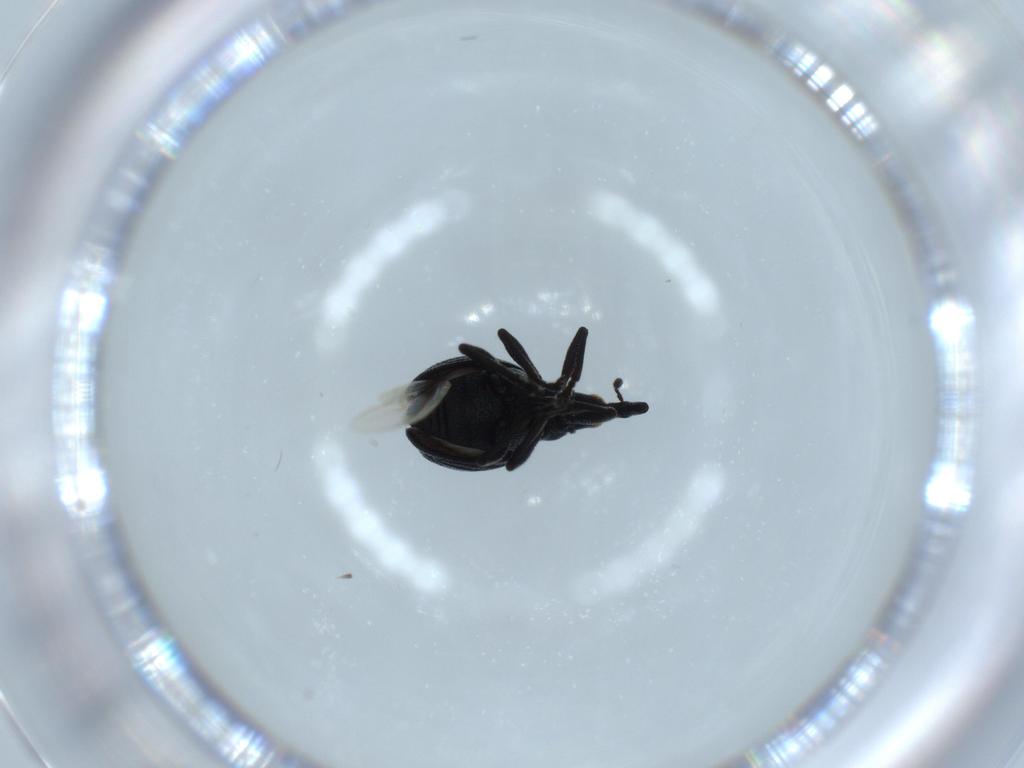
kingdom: Animalia
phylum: Arthropoda
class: Insecta
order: Coleoptera
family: Brentidae
